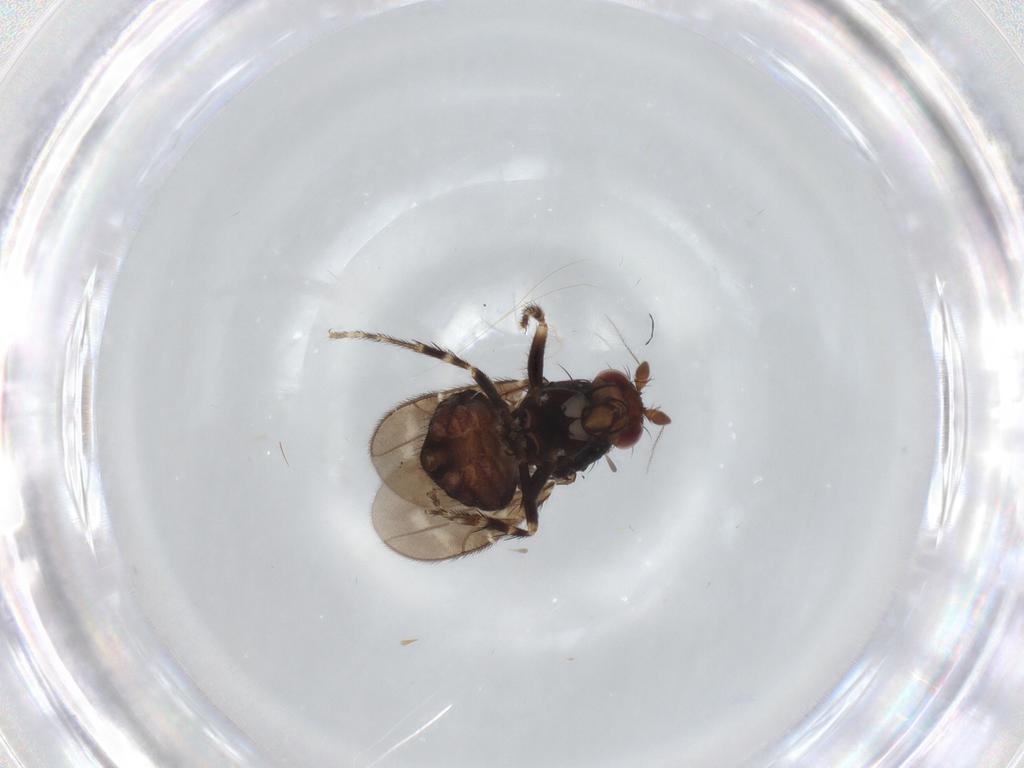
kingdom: Animalia
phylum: Arthropoda
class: Insecta
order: Diptera
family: Sphaeroceridae
